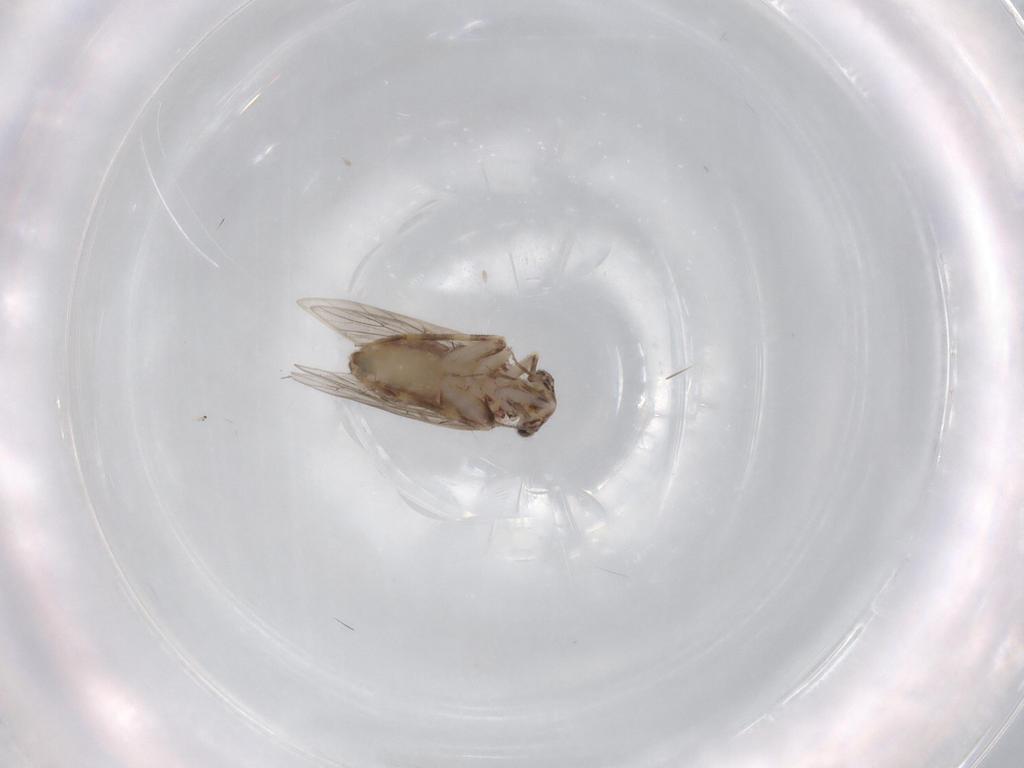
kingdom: Animalia
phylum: Arthropoda
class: Insecta
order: Psocodea
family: Lepidopsocidae
